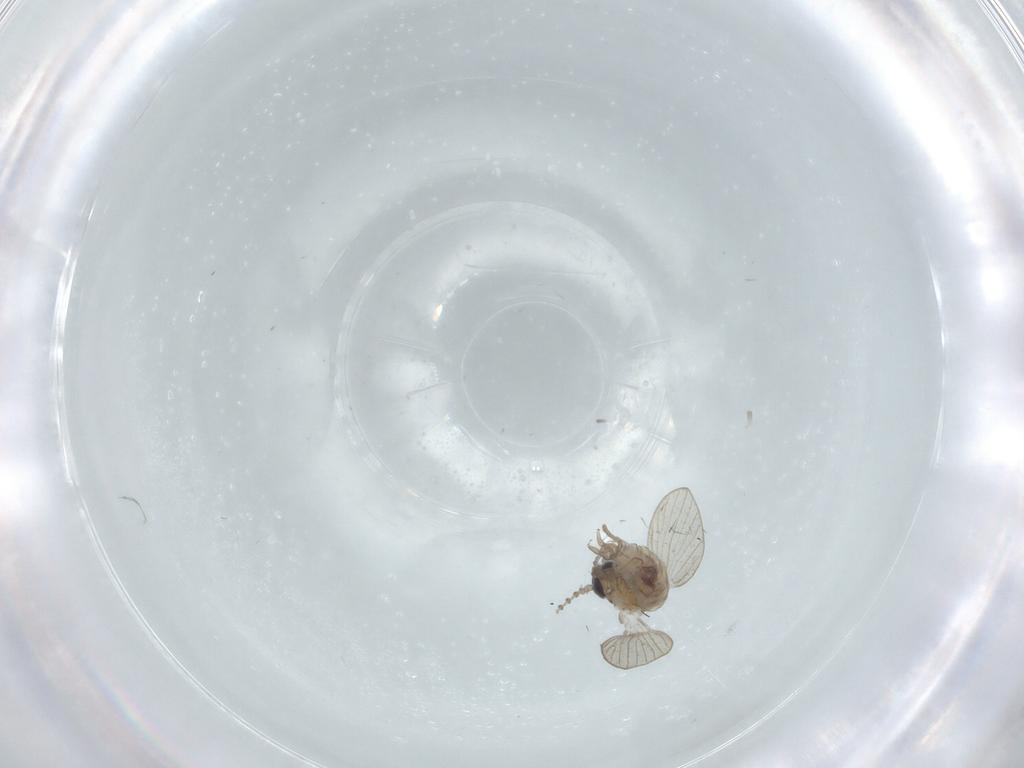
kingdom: Animalia
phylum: Arthropoda
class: Insecta
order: Diptera
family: Psychodidae
